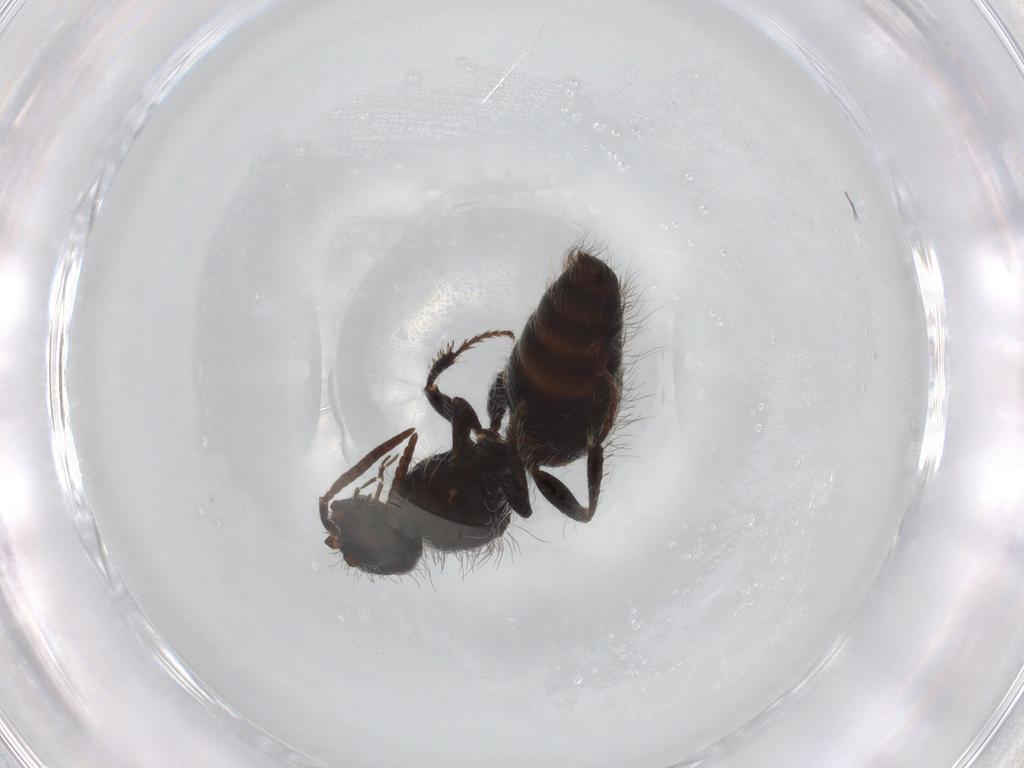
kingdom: Animalia
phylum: Arthropoda
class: Insecta
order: Hymenoptera
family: Mutillidae
